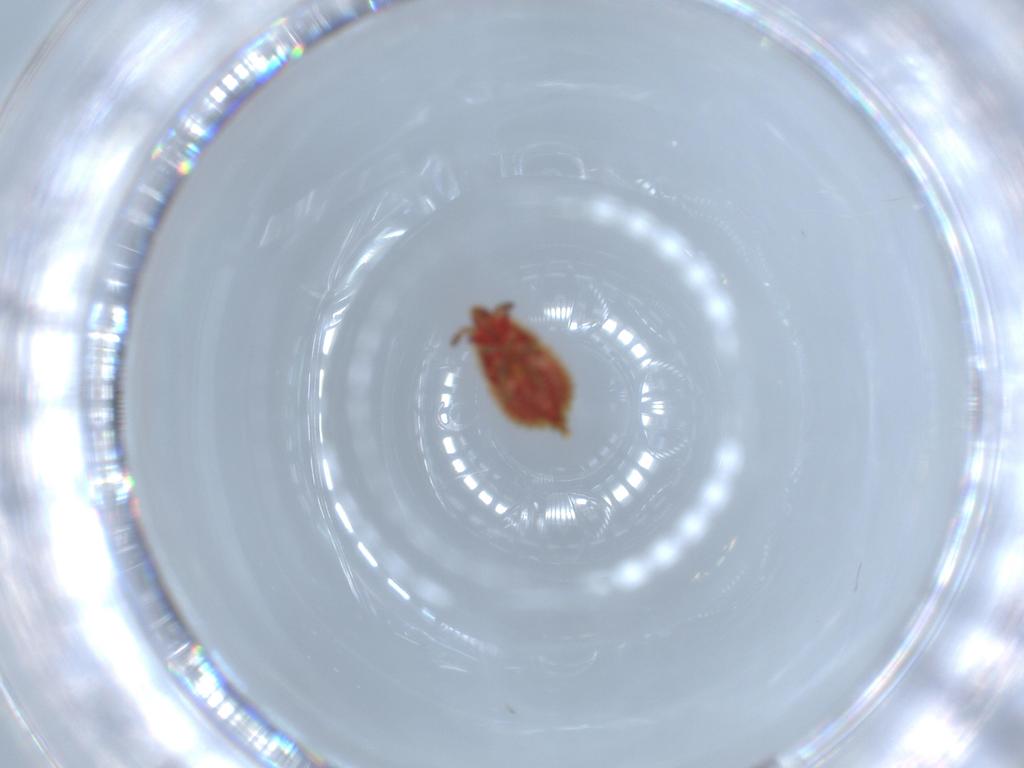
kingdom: Animalia
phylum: Arthropoda
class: Insecta
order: Hemiptera
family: Aradidae
